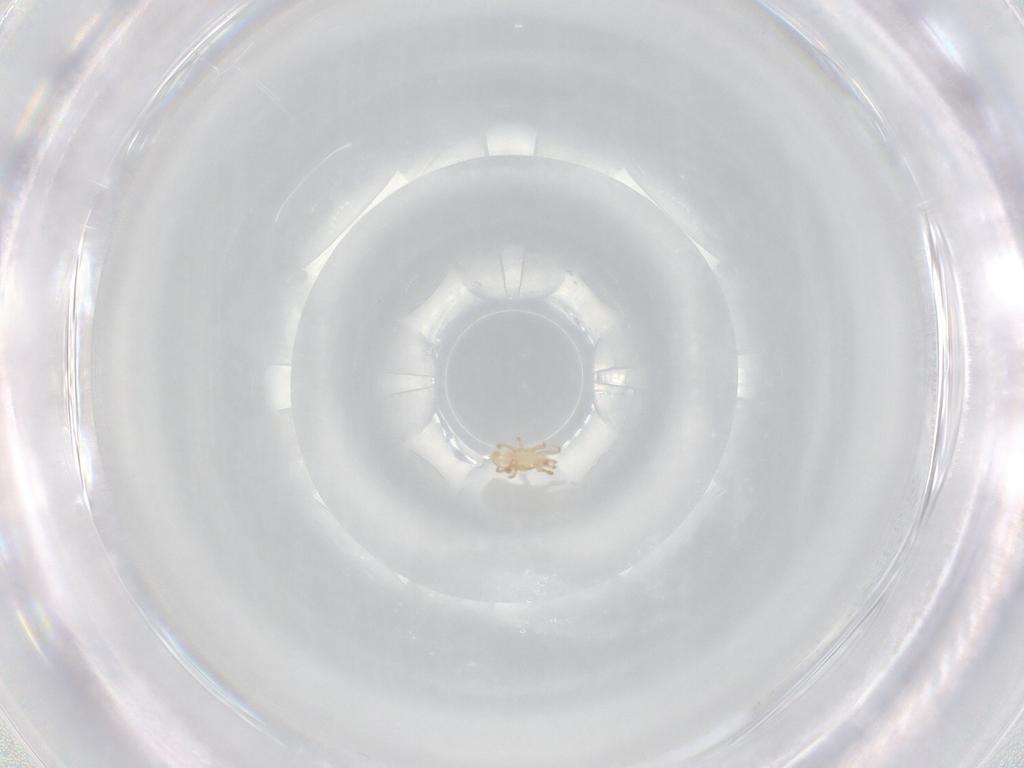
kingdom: Animalia
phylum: Arthropoda
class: Arachnida
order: Mesostigmata
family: Ascidae
